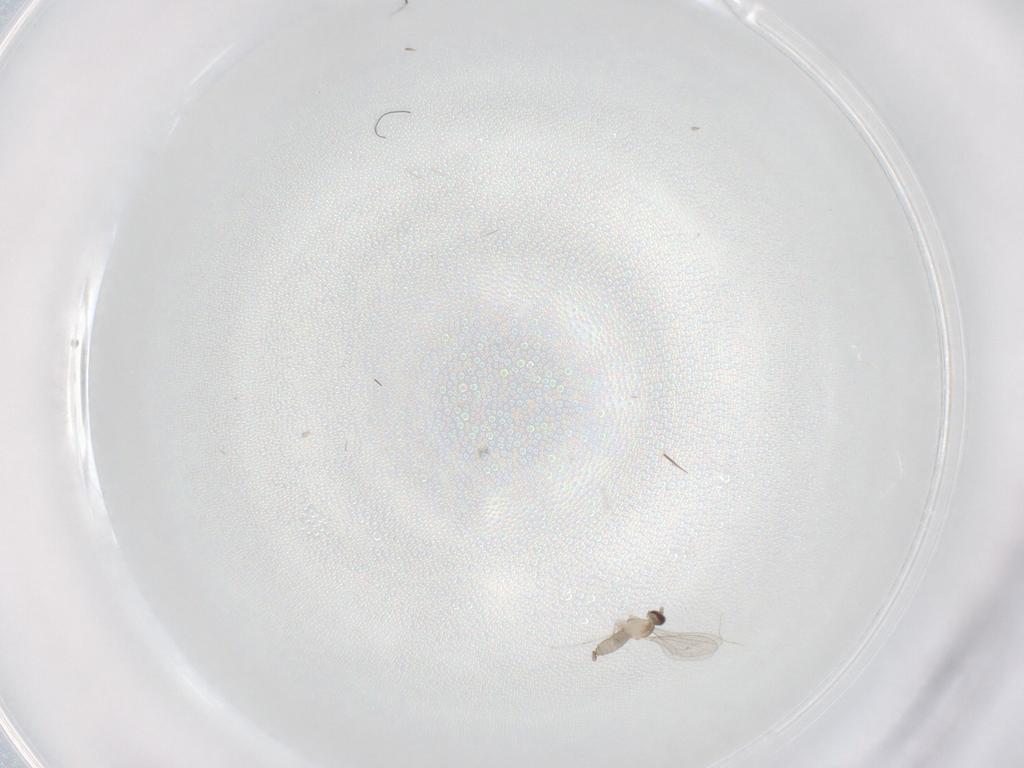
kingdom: Animalia
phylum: Arthropoda
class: Insecta
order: Diptera
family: Cecidomyiidae
